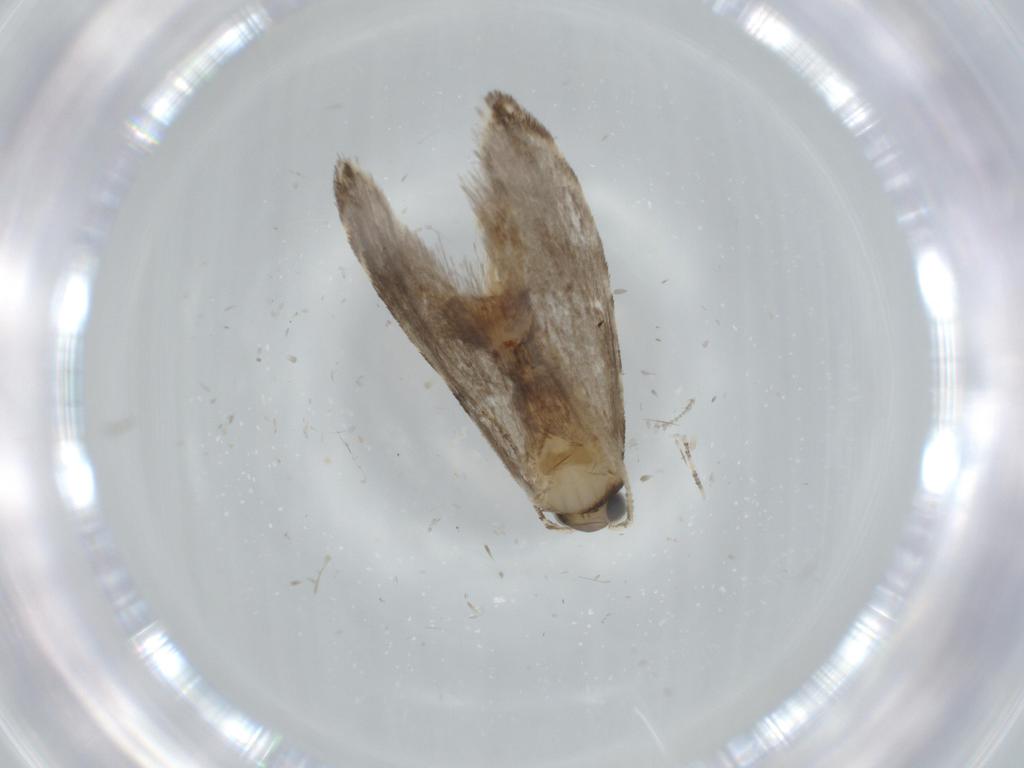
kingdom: Animalia
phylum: Arthropoda
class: Insecta
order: Lepidoptera
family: Tineidae
